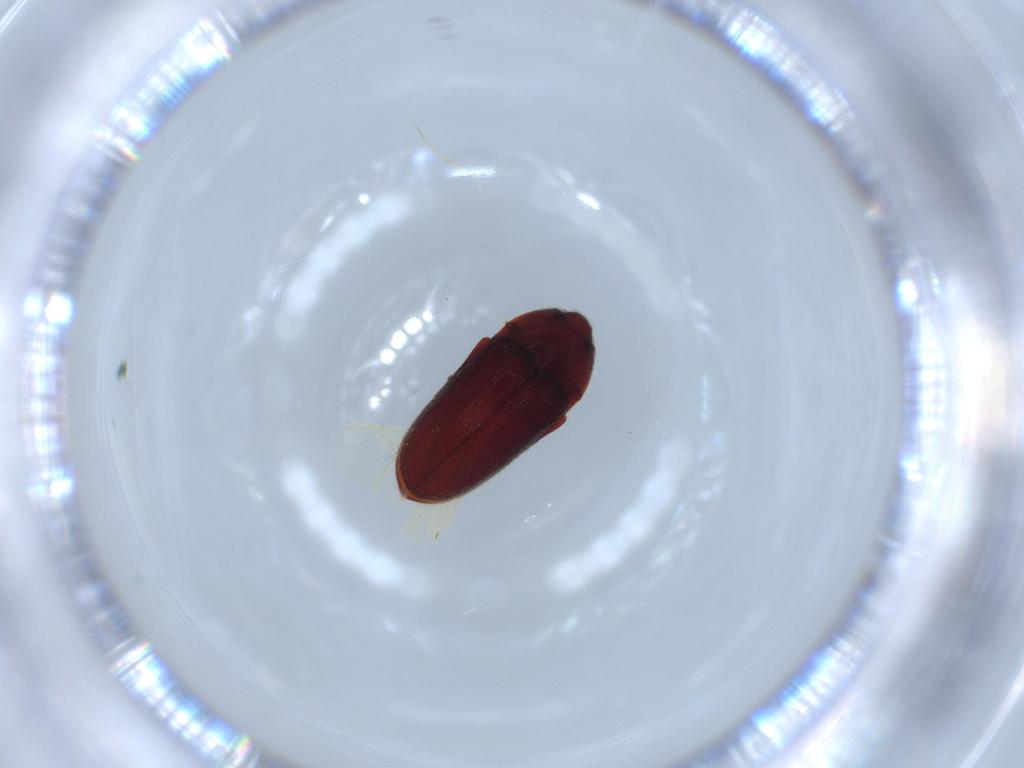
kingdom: Animalia
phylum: Arthropoda
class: Insecta
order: Coleoptera
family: Throscidae
